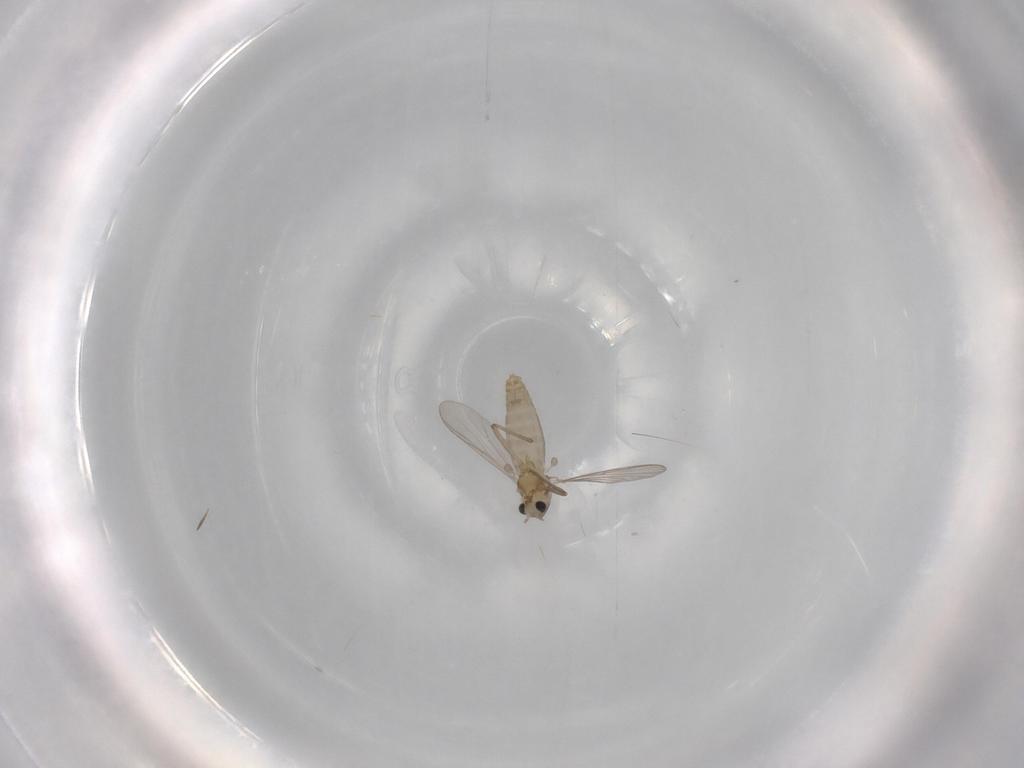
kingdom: Animalia
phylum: Arthropoda
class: Insecta
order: Diptera
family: Chironomidae
